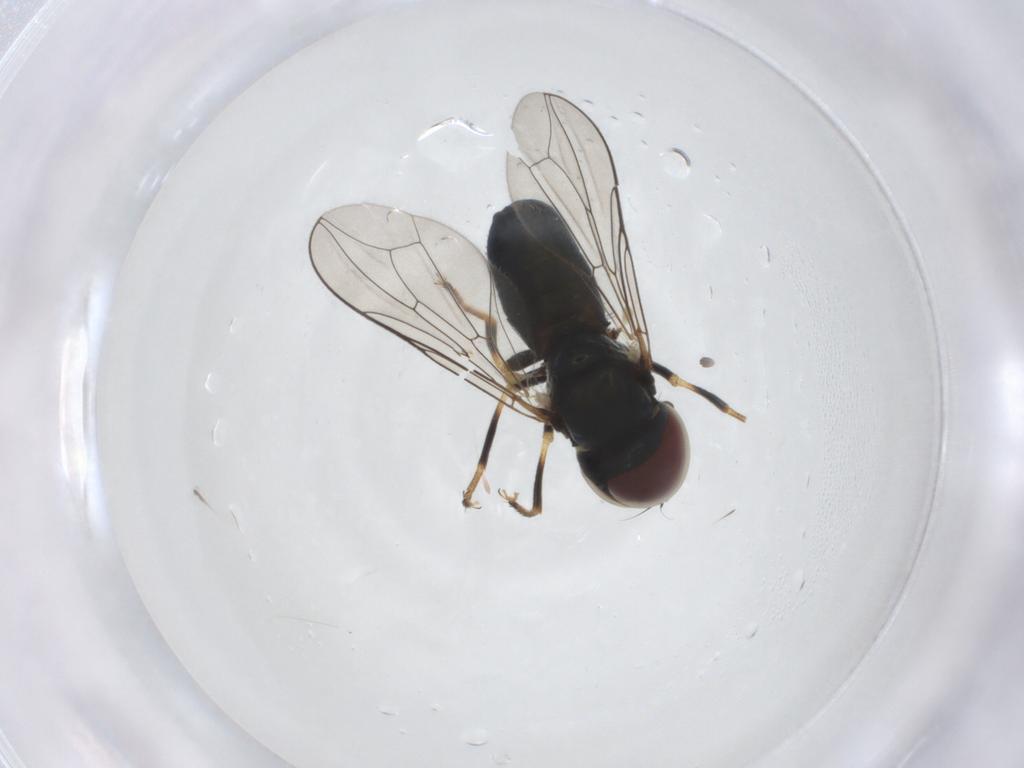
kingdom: Animalia
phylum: Arthropoda
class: Insecta
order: Diptera
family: Pipunculidae
